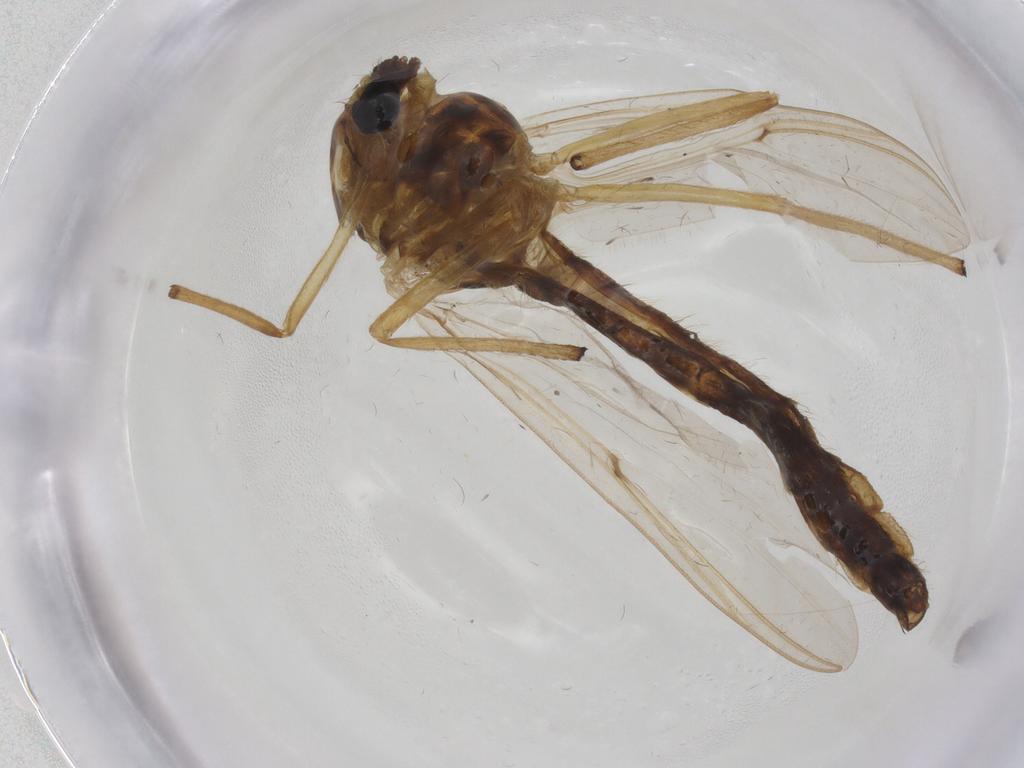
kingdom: Animalia
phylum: Arthropoda
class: Insecta
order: Diptera
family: Chironomidae
